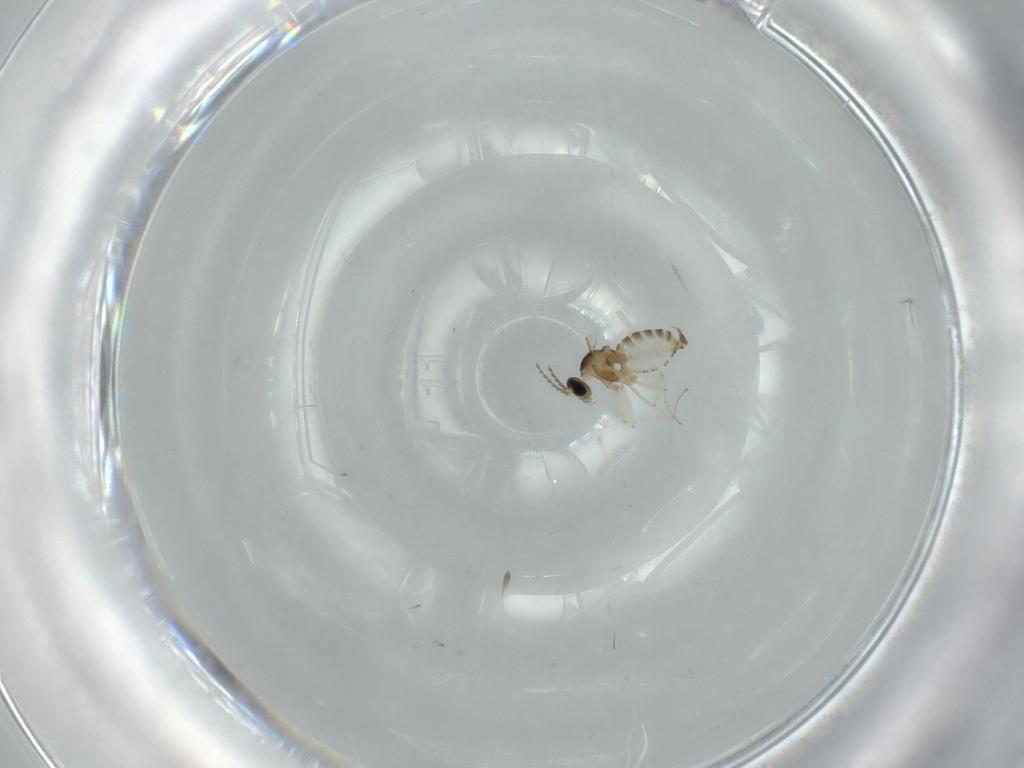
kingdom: Animalia
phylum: Arthropoda
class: Insecta
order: Diptera
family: Cecidomyiidae
